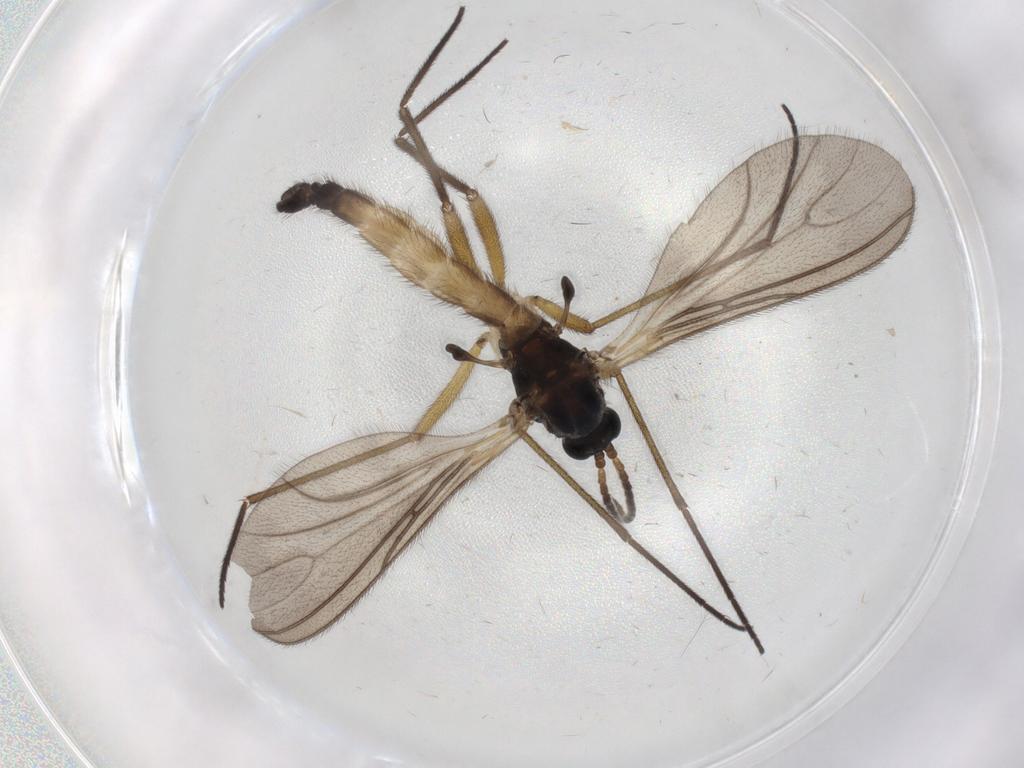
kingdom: Animalia
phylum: Arthropoda
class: Insecta
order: Diptera
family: Sciaridae
